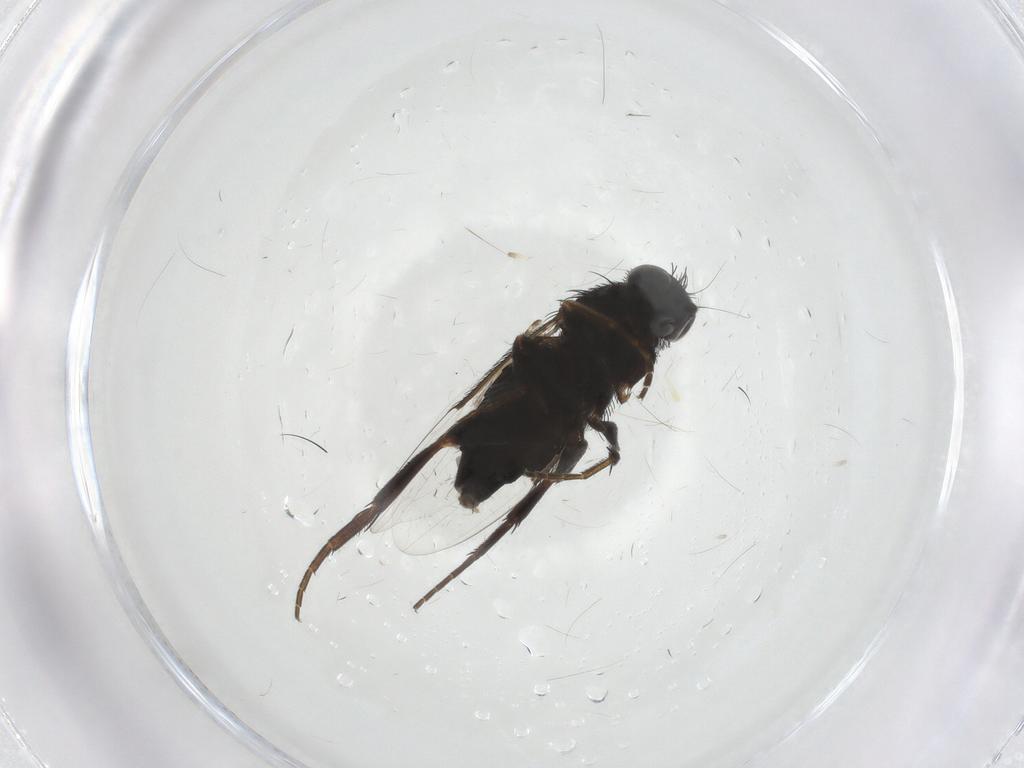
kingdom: Animalia
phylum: Arthropoda
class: Insecta
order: Diptera
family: Phoridae
